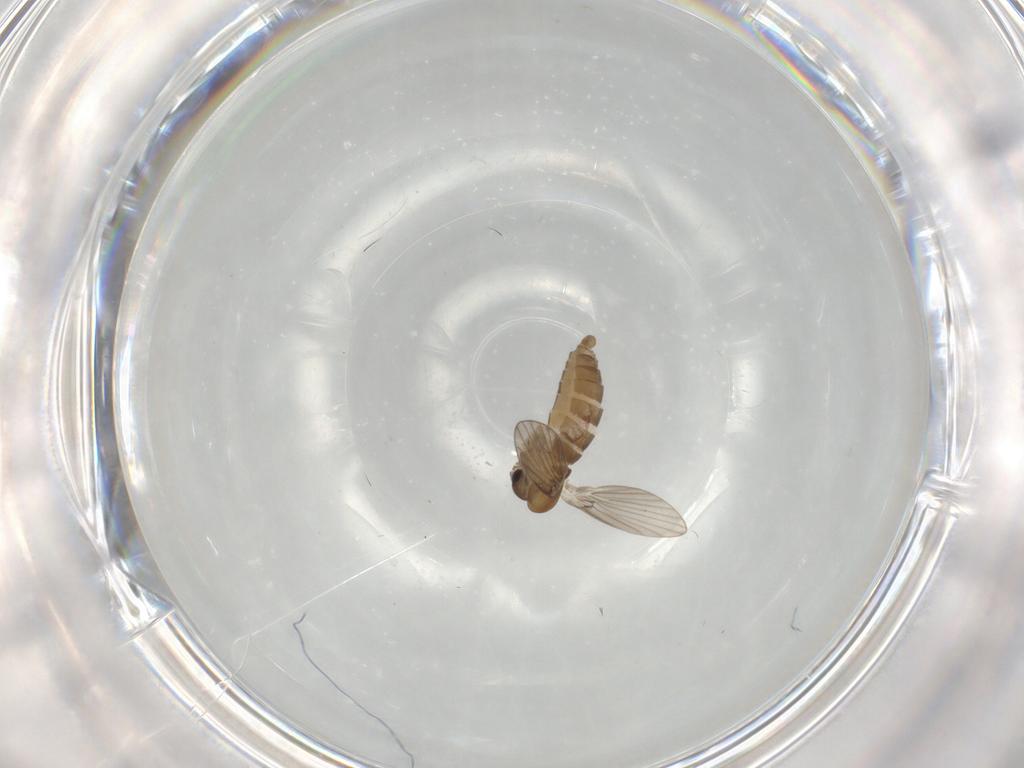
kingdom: Animalia
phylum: Arthropoda
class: Insecta
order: Diptera
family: Psychodidae
